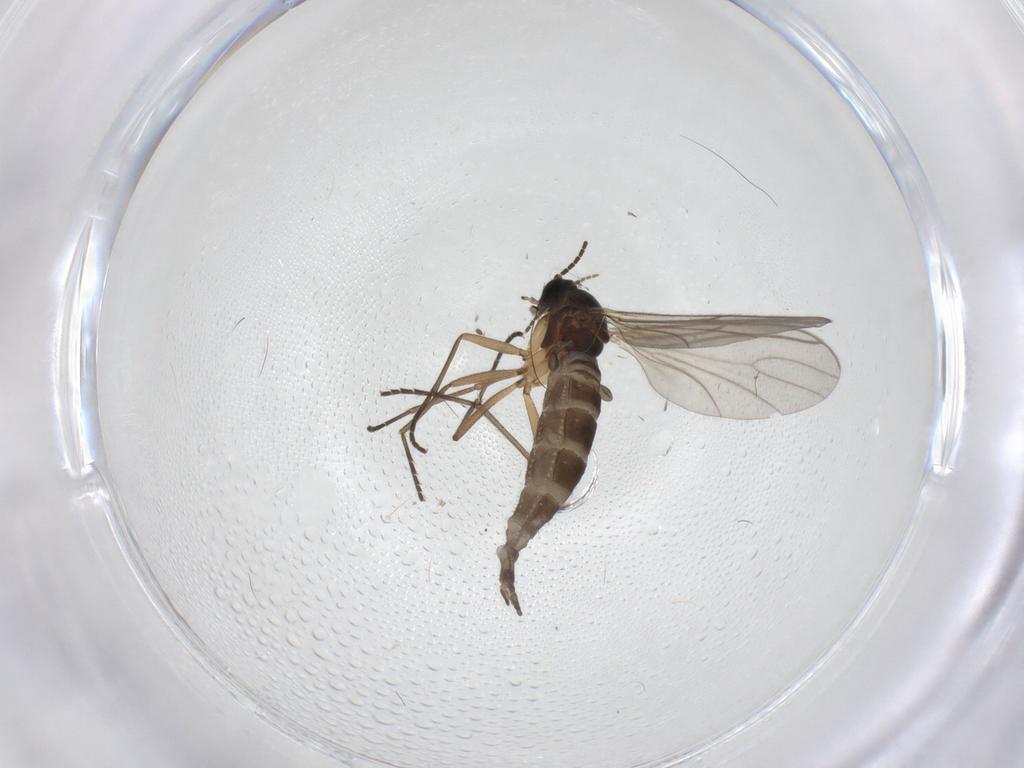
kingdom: Animalia
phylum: Arthropoda
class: Insecta
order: Diptera
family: Sciaridae
